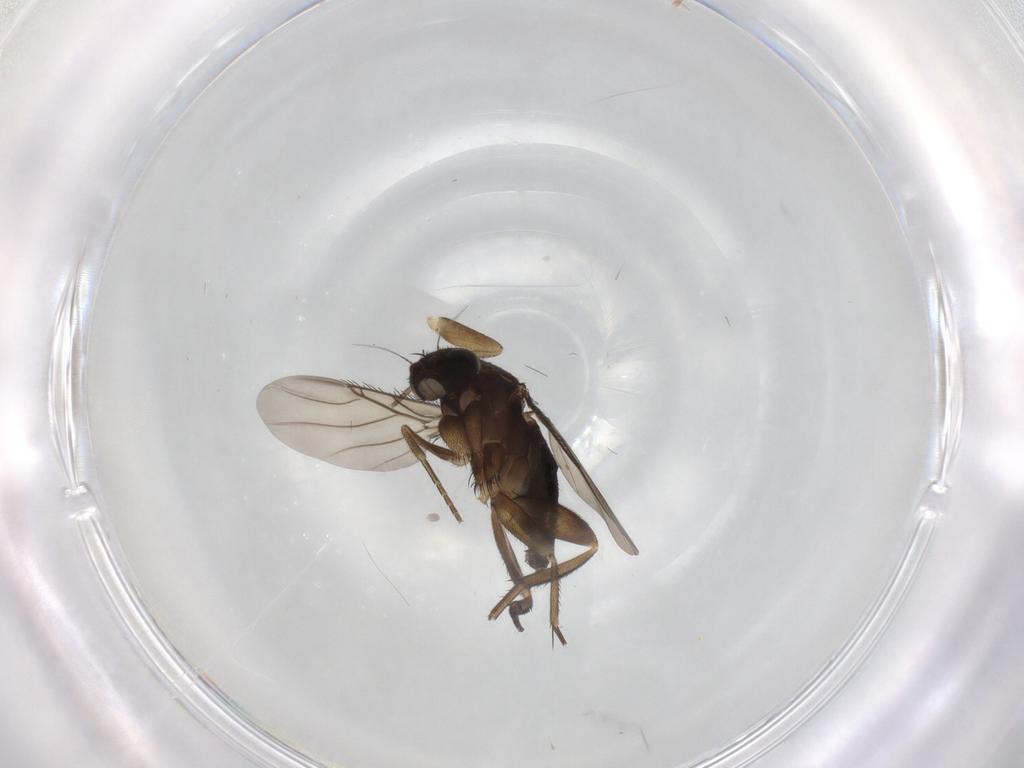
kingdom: Animalia
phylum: Arthropoda
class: Insecta
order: Diptera
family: Phoridae
